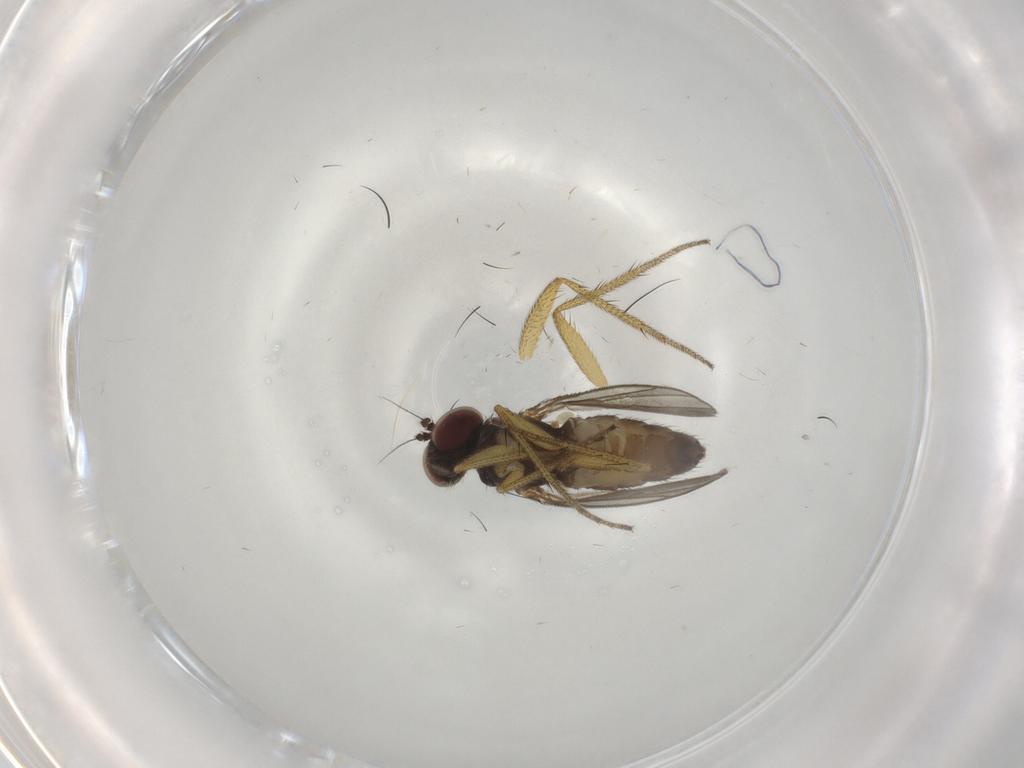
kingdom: Animalia
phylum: Arthropoda
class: Insecta
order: Diptera
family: Dolichopodidae
